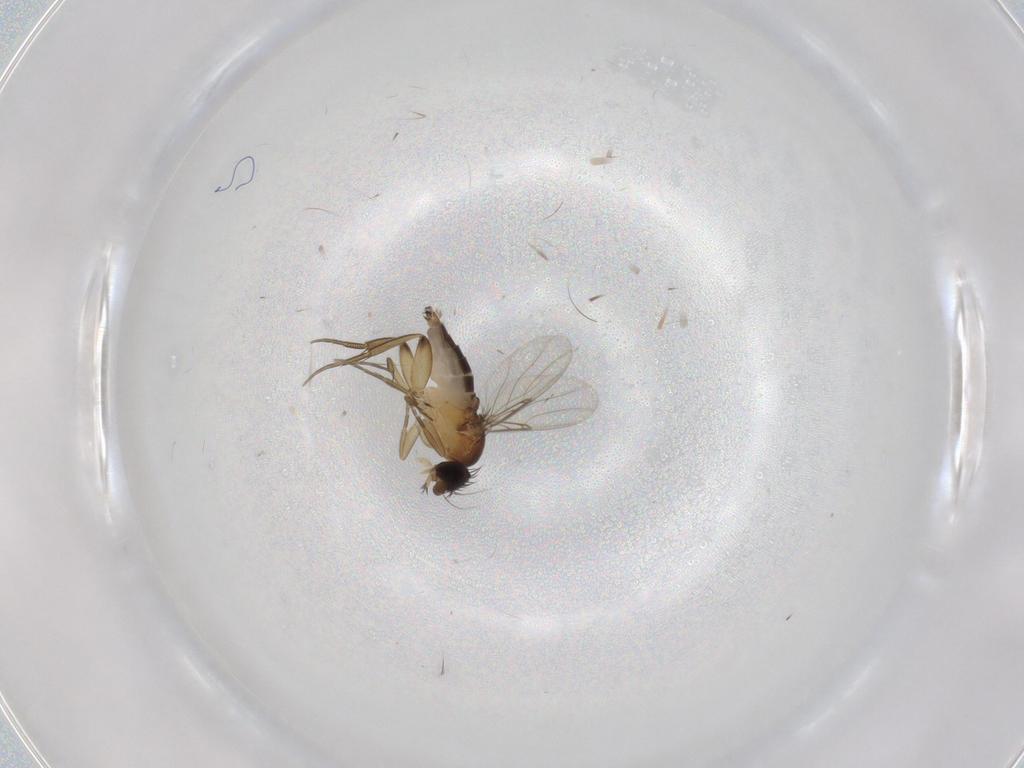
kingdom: Animalia
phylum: Arthropoda
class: Insecta
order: Diptera
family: Phoridae
